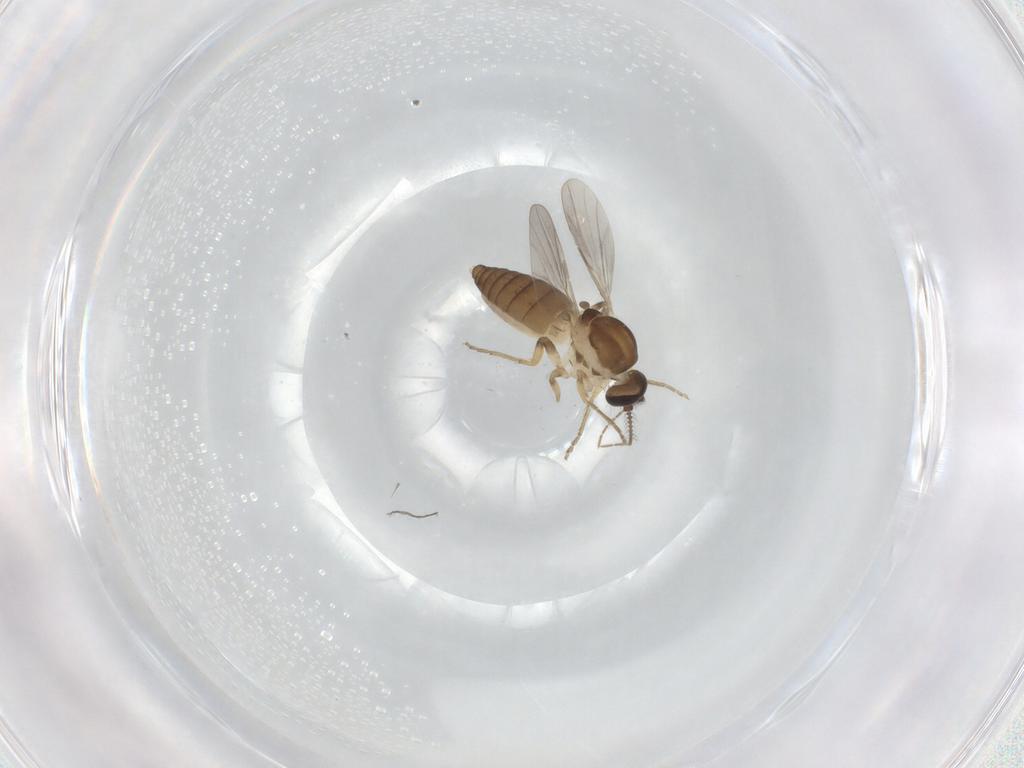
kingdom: Animalia
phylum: Arthropoda
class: Insecta
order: Diptera
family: Ceratopogonidae
